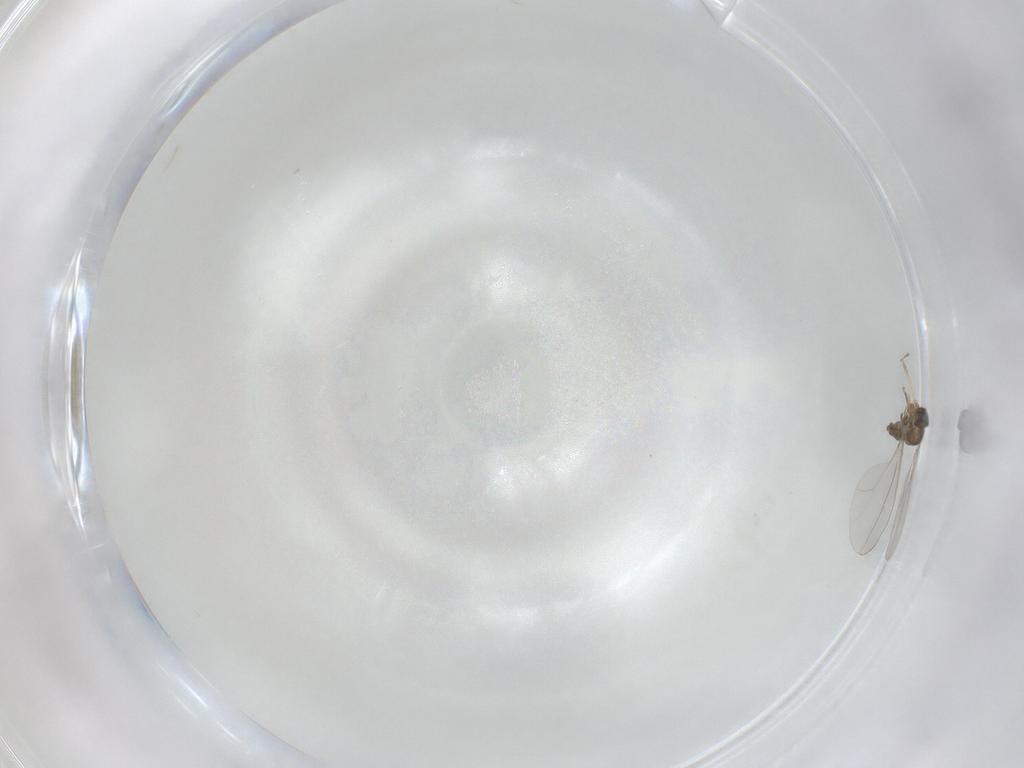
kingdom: Animalia
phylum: Arthropoda
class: Insecta
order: Diptera
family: Cecidomyiidae
